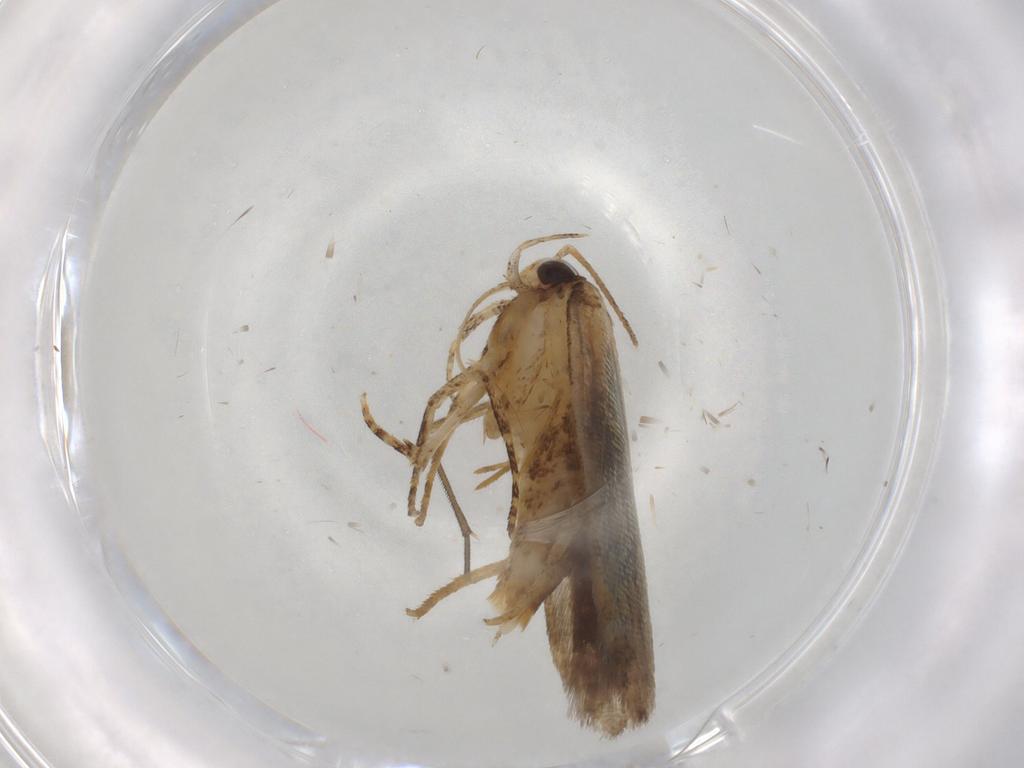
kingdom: Animalia
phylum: Arthropoda
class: Insecta
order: Lepidoptera
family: Plutellidae
